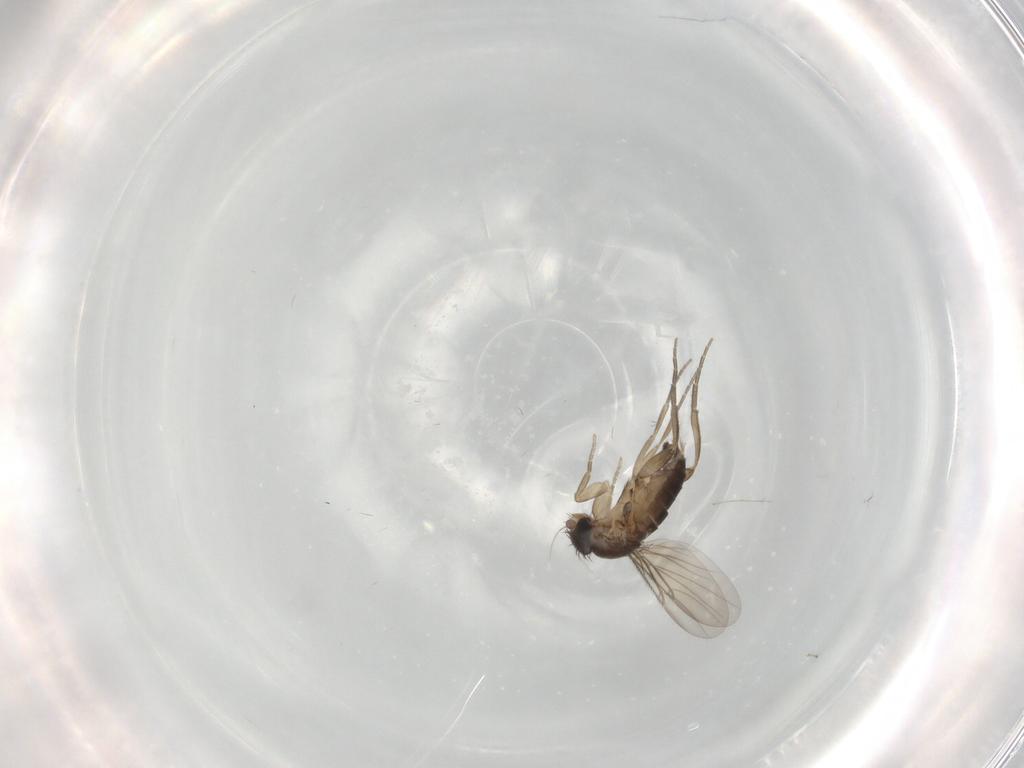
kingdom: Animalia
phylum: Arthropoda
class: Insecta
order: Diptera
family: Phoridae
